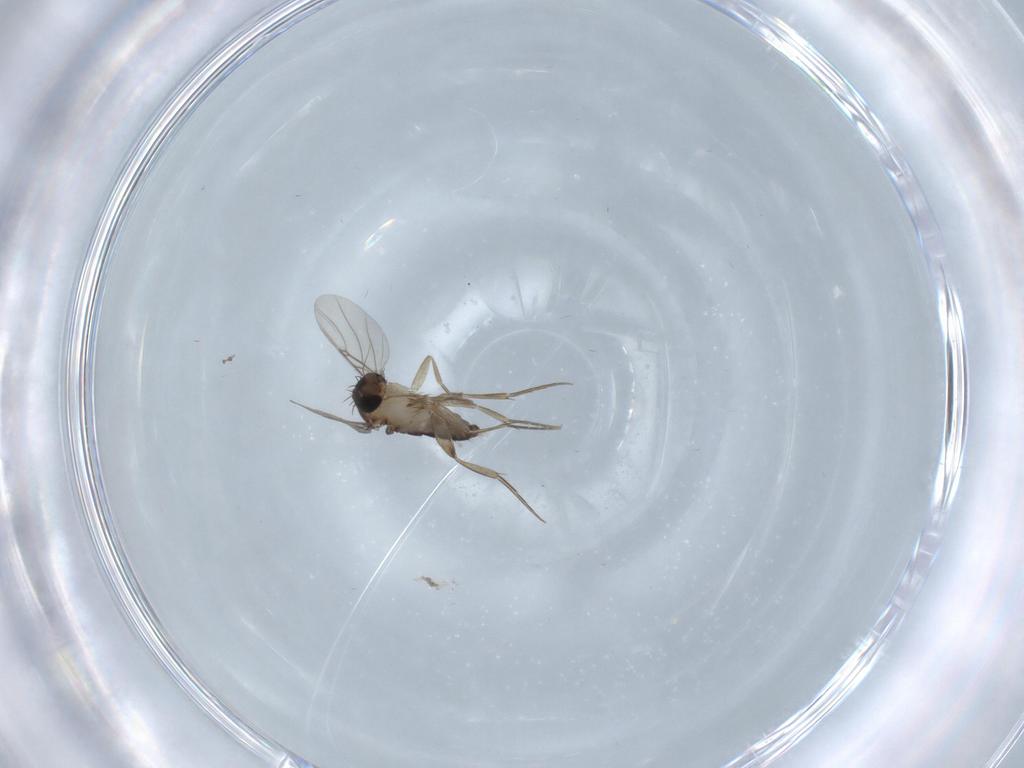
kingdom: Animalia
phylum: Arthropoda
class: Insecta
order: Diptera
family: Phoridae
